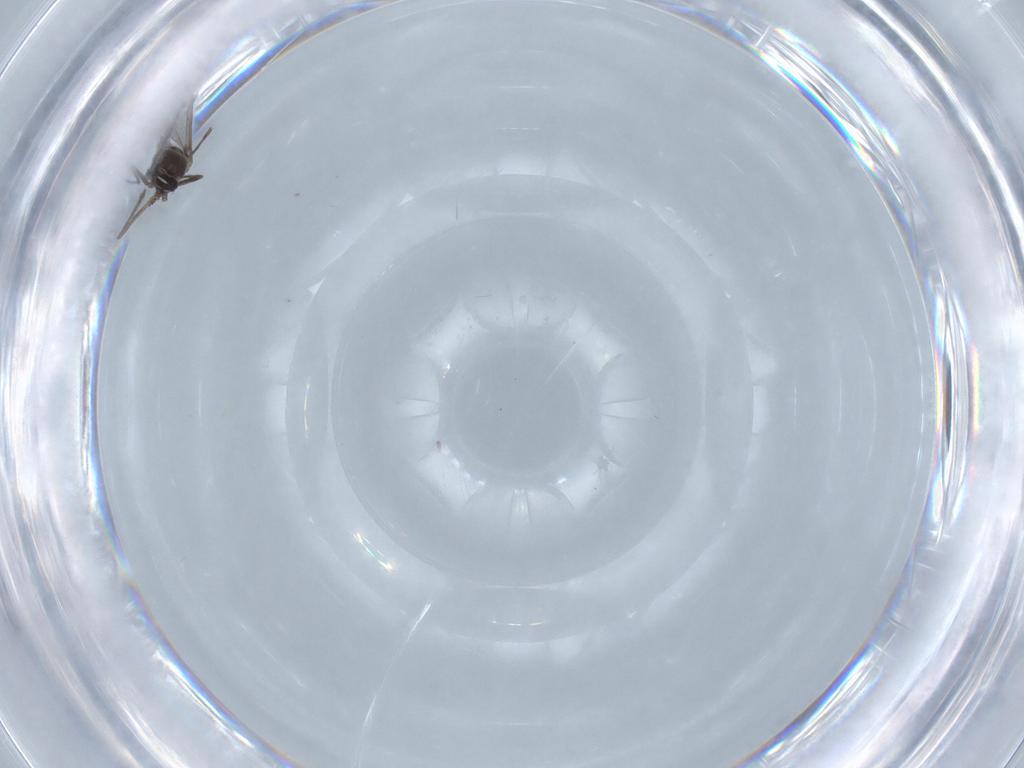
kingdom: Animalia
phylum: Arthropoda
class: Insecta
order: Diptera
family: Cecidomyiidae
